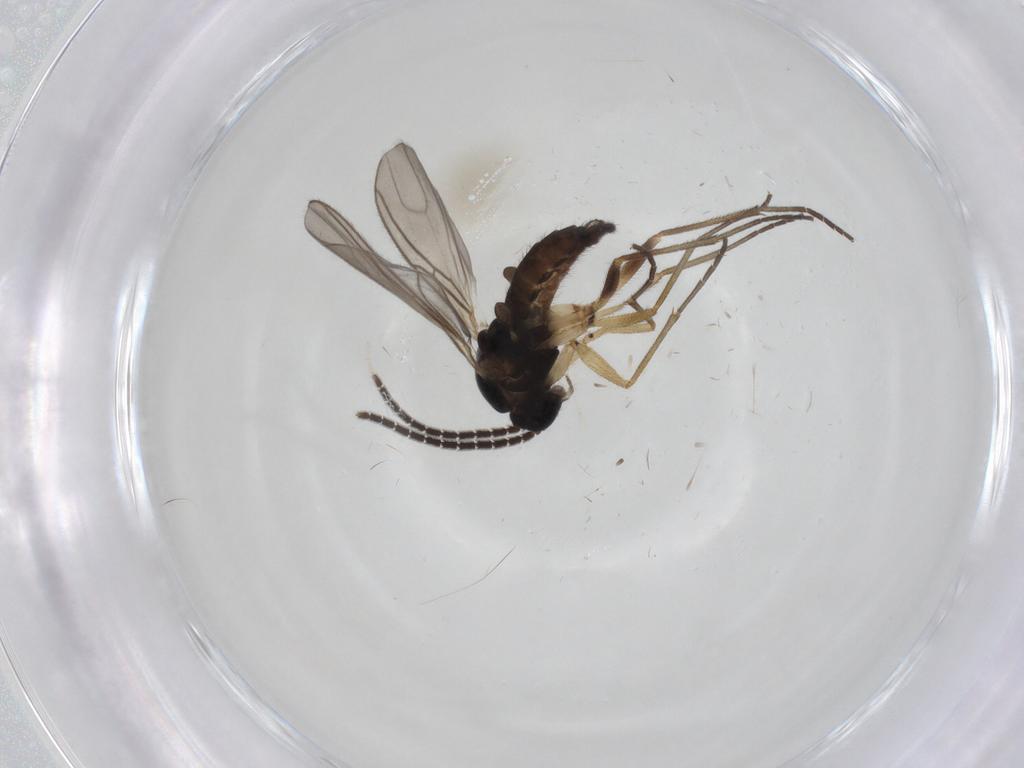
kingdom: Animalia
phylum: Arthropoda
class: Insecta
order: Diptera
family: Sciaridae
